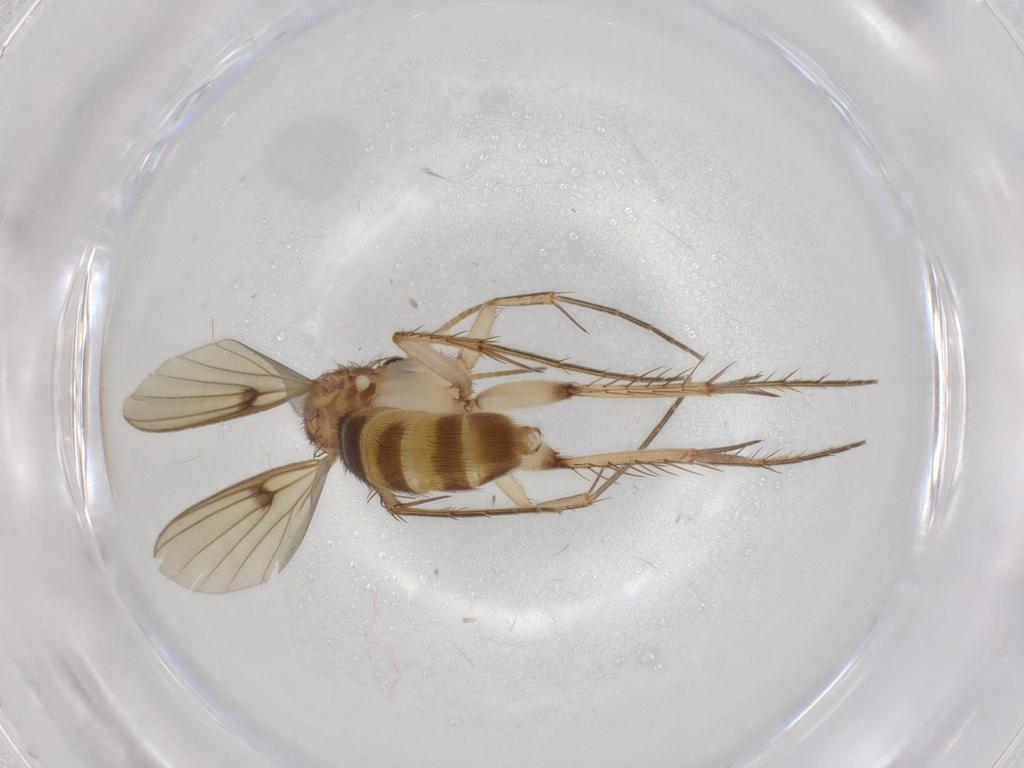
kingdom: Animalia
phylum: Arthropoda
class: Insecta
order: Diptera
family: Mycetophilidae
